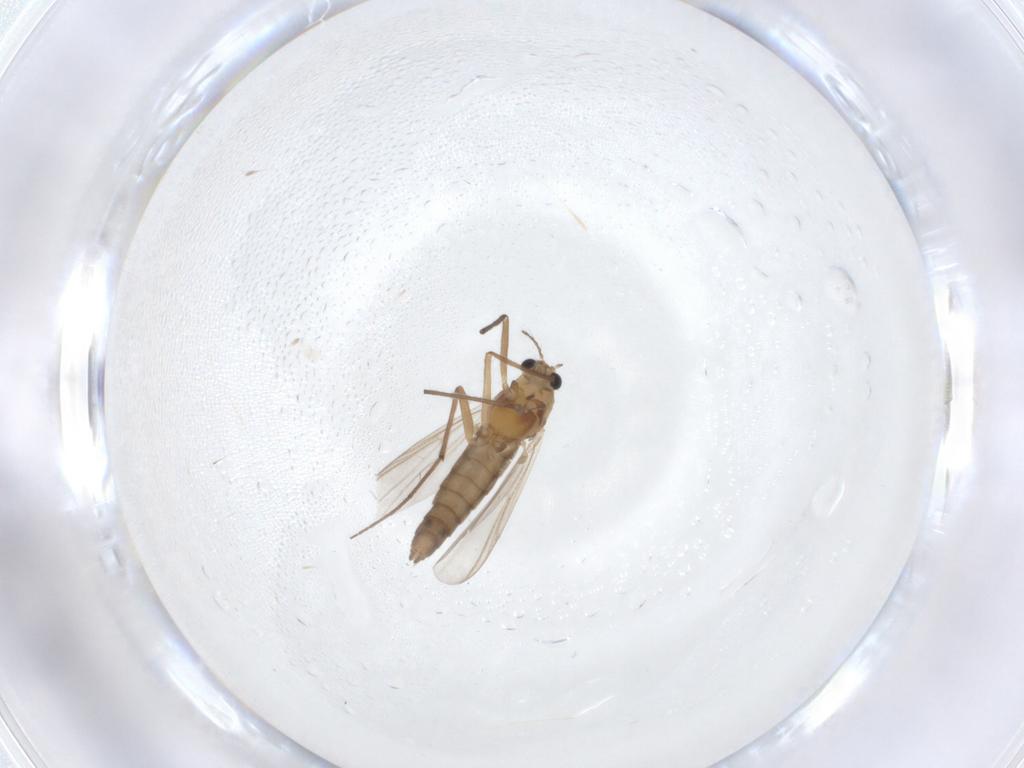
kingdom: Animalia
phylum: Arthropoda
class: Insecta
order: Diptera
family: Chironomidae
